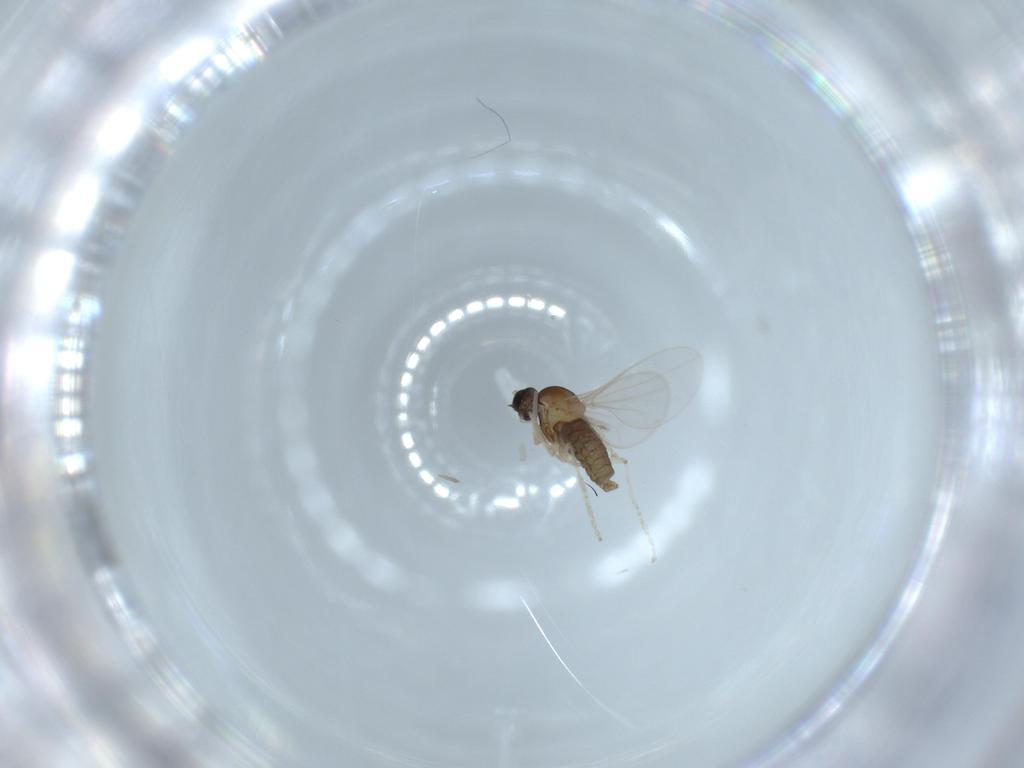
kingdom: Animalia
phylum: Arthropoda
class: Insecta
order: Diptera
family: Cecidomyiidae
